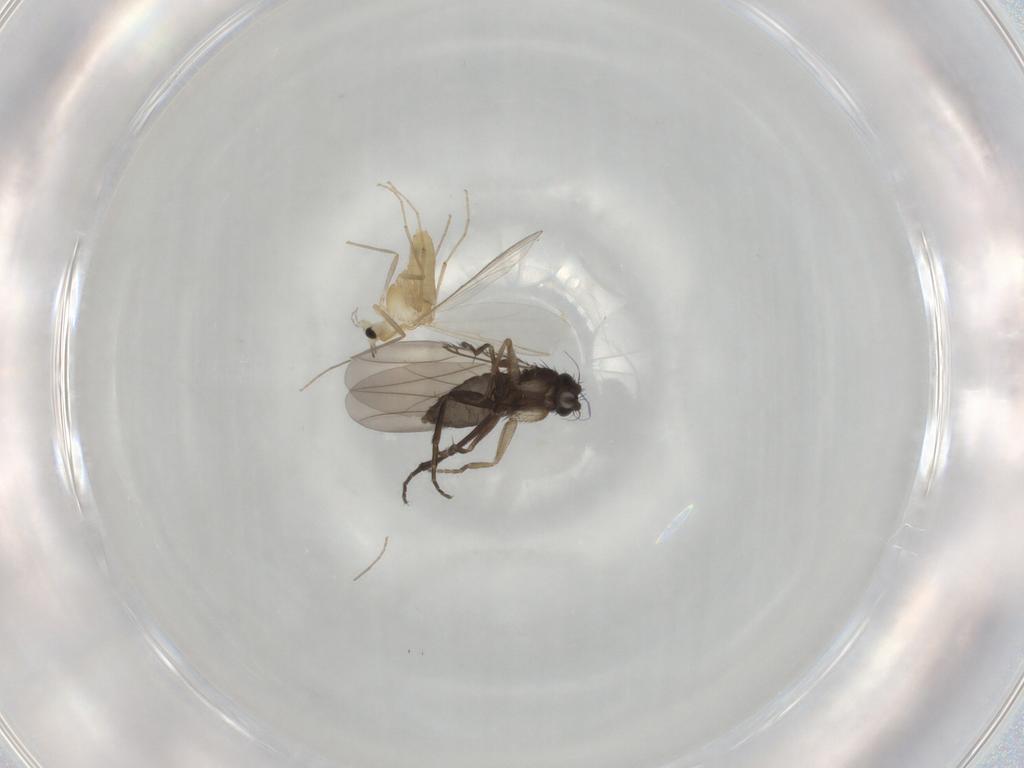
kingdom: Animalia
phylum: Arthropoda
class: Insecta
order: Diptera
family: Chironomidae
